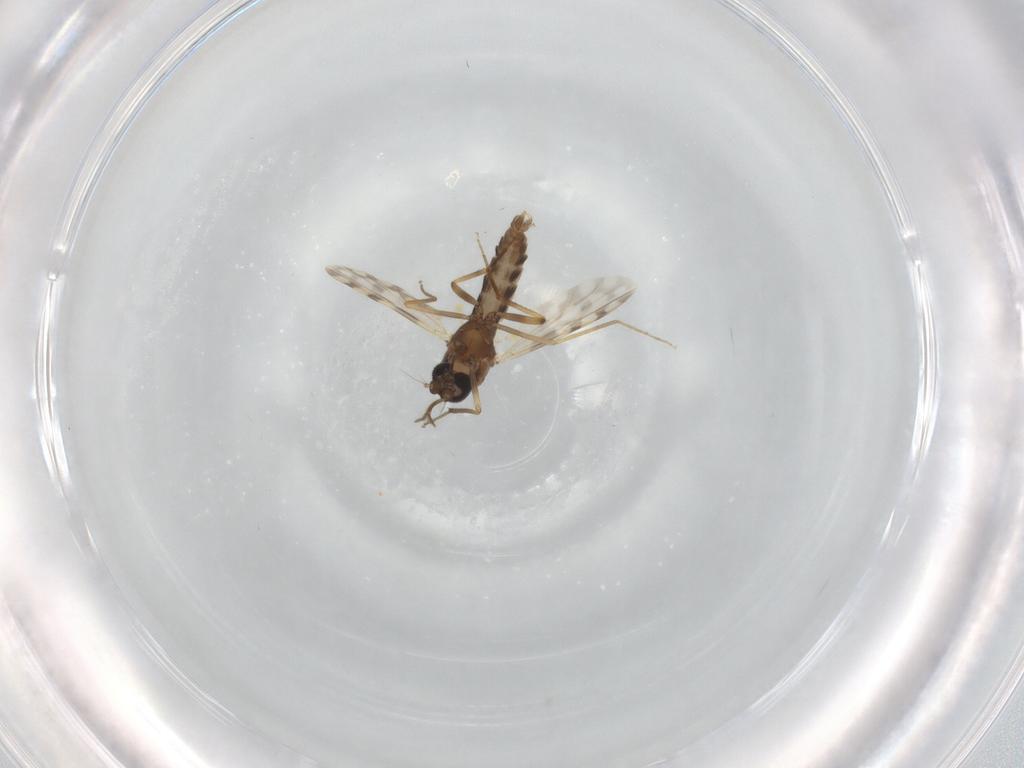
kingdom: Animalia
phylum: Arthropoda
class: Insecta
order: Diptera
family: Ceratopogonidae
